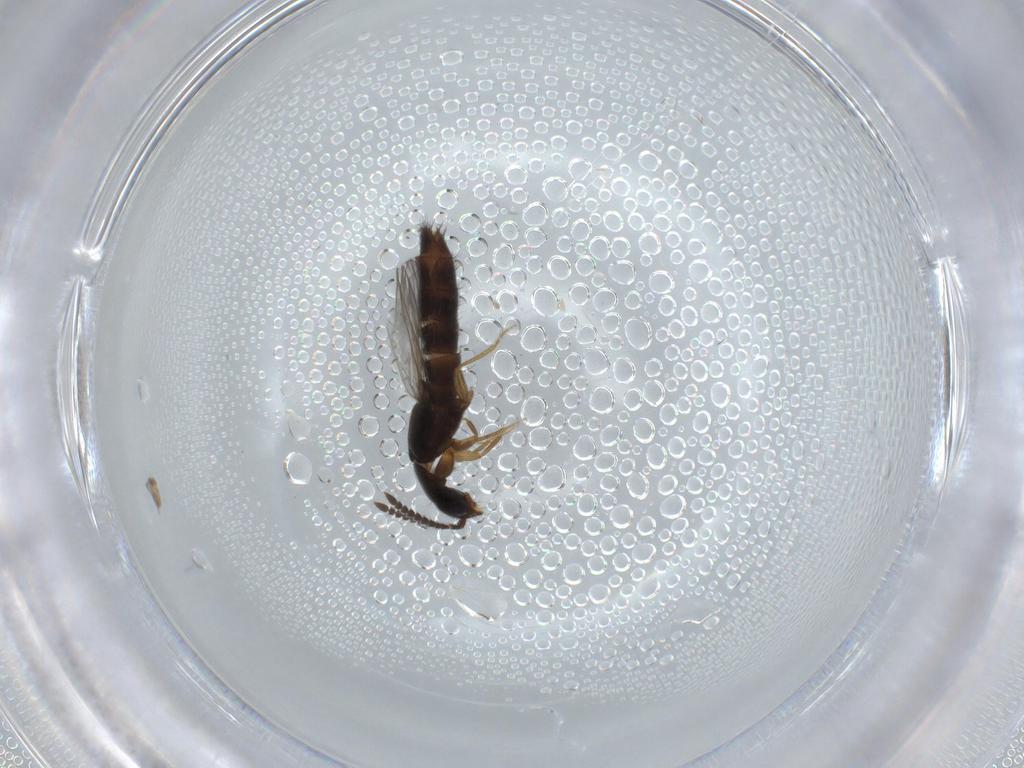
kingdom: Animalia
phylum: Arthropoda
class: Insecta
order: Coleoptera
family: Staphylinidae
